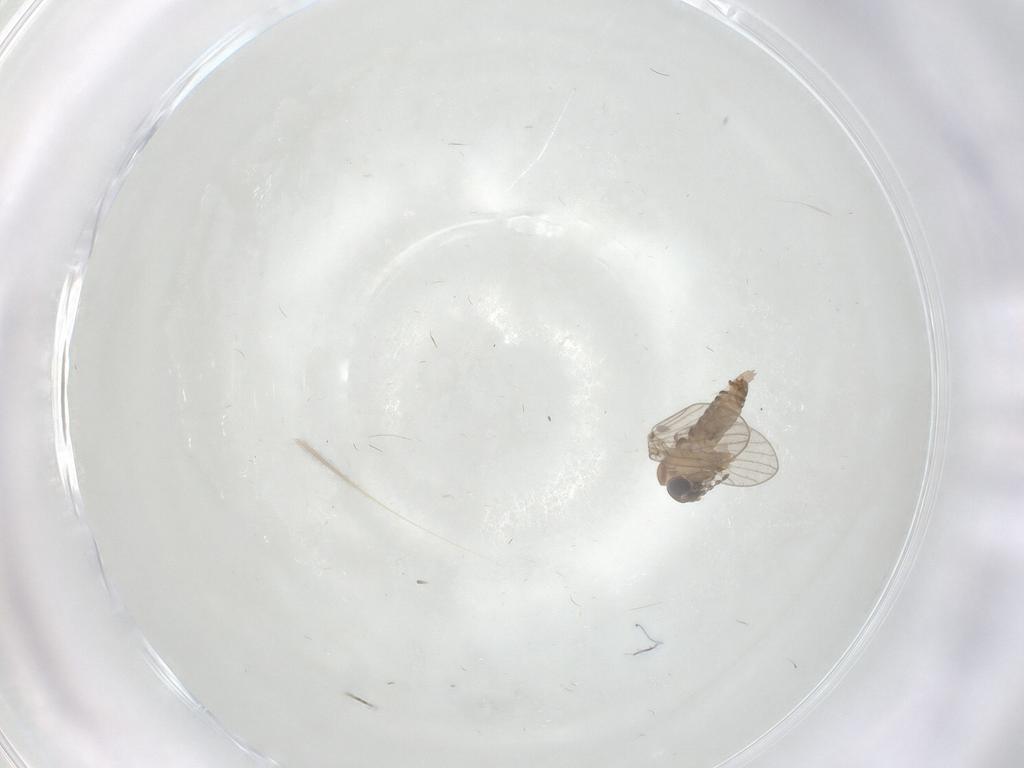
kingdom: Animalia
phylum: Arthropoda
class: Insecta
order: Diptera
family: Psychodidae
